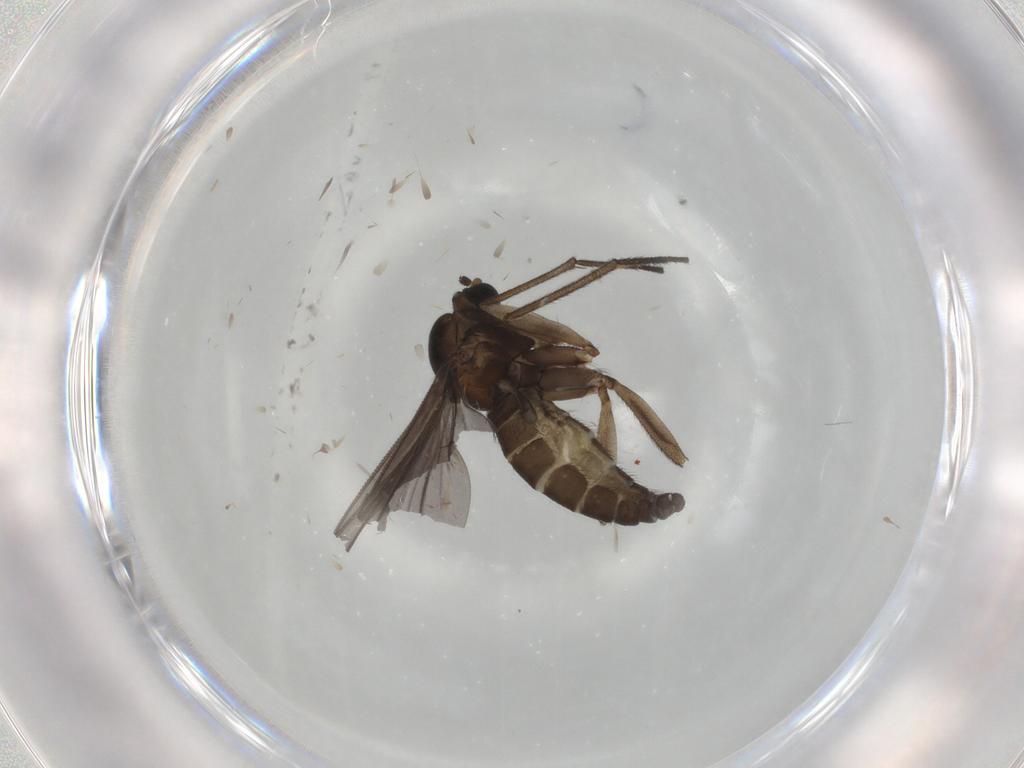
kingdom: Animalia
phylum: Arthropoda
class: Insecta
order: Diptera
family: Sciaridae
